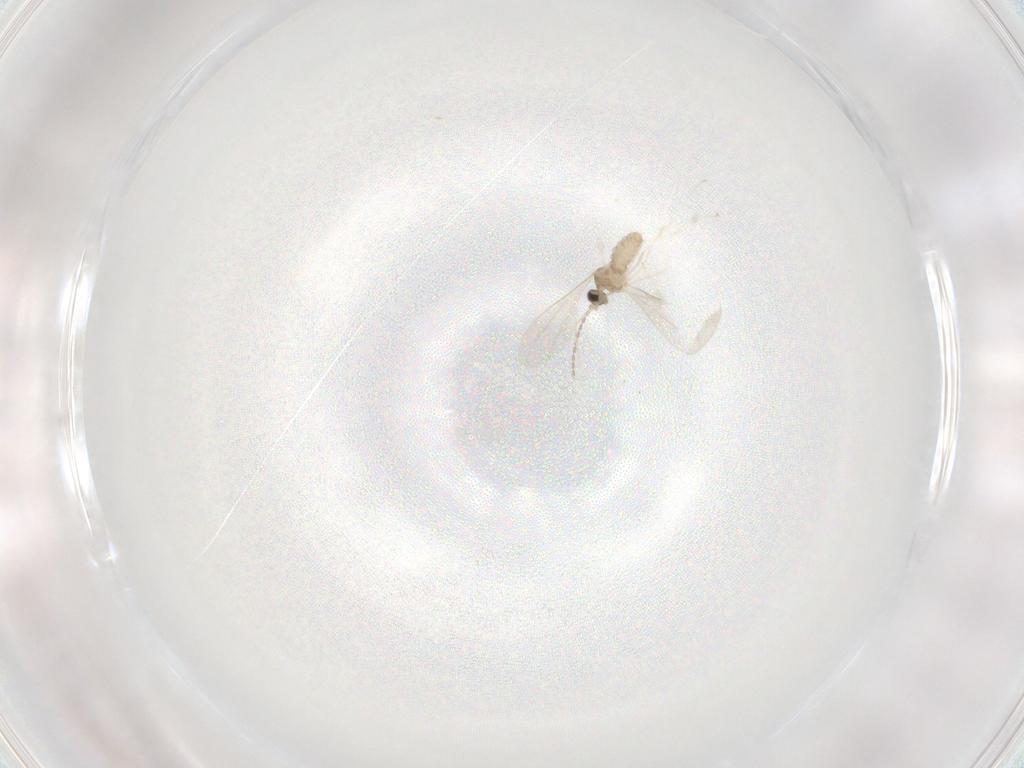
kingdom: Animalia
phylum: Arthropoda
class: Insecta
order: Diptera
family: Cecidomyiidae
